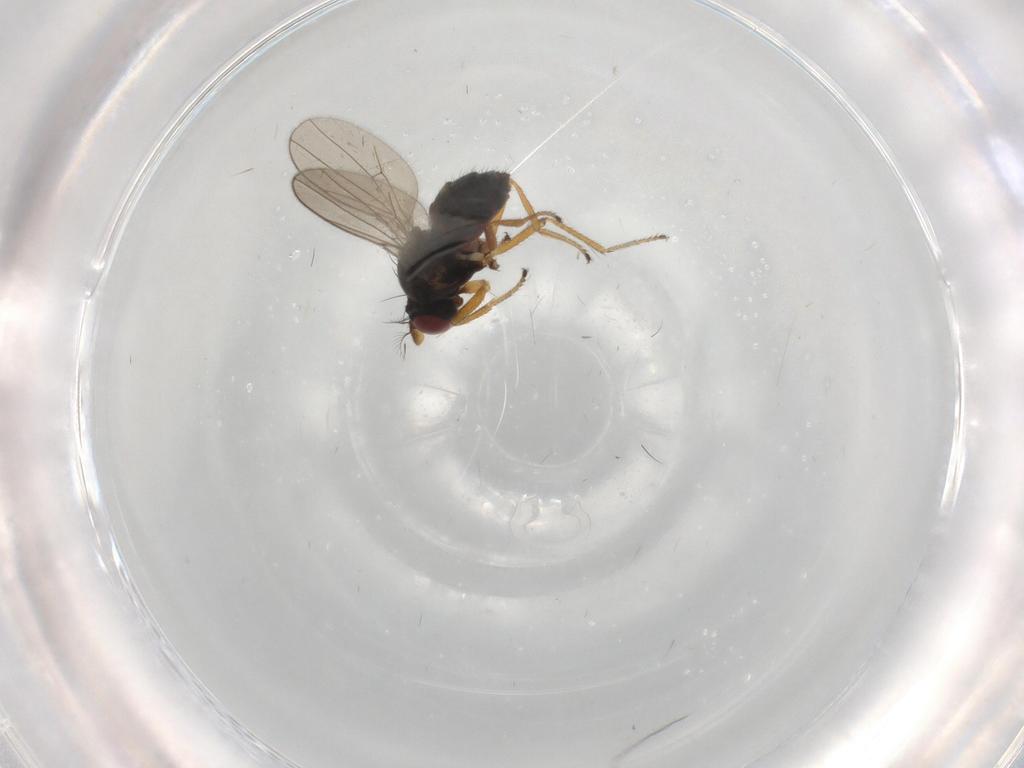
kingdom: Animalia
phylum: Arthropoda
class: Insecta
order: Diptera
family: Ephydridae
